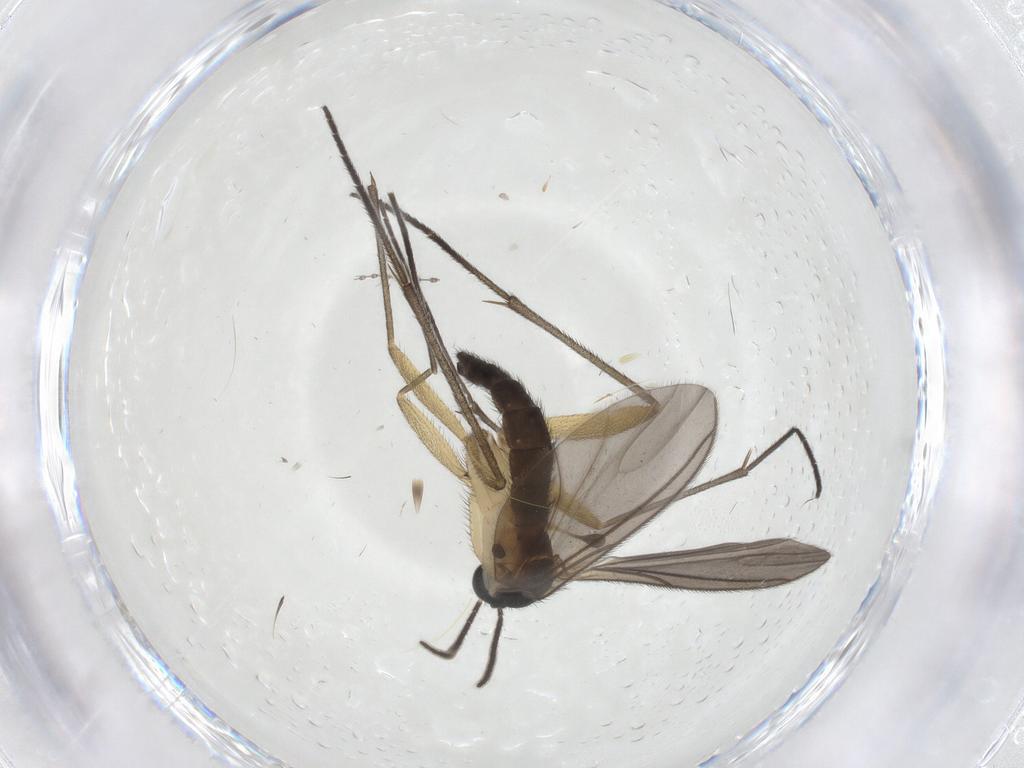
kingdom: Animalia
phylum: Arthropoda
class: Insecta
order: Diptera
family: Sciaridae
